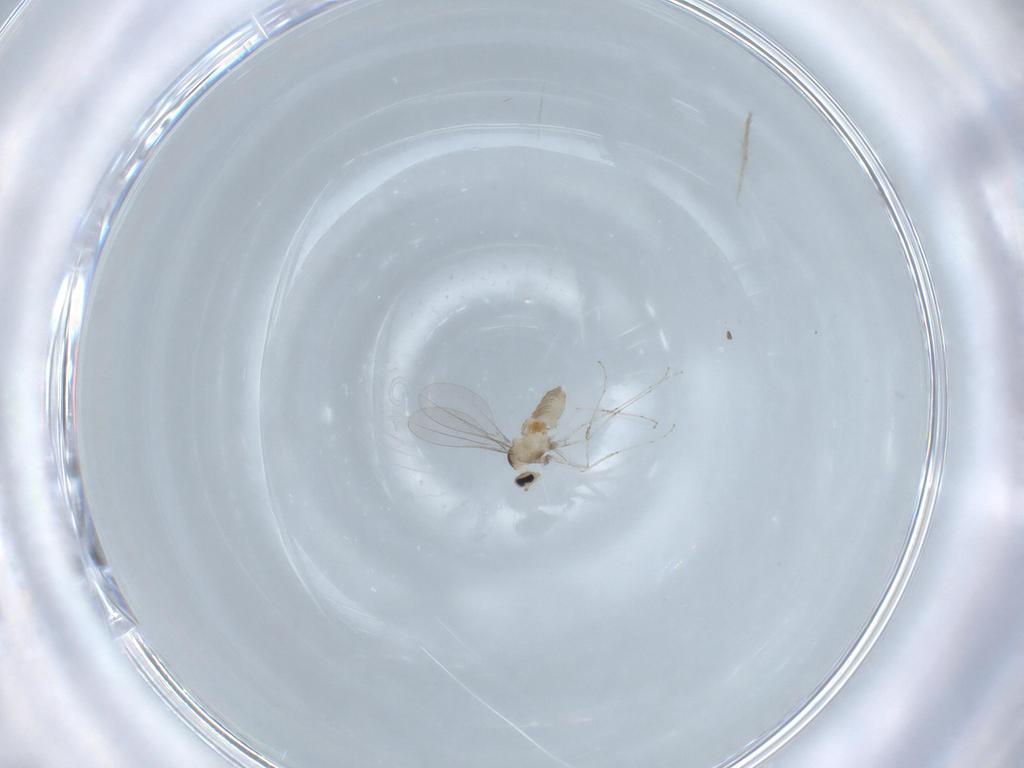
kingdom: Animalia
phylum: Arthropoda
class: Insecta
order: Diptera
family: Cecidomyiidae
